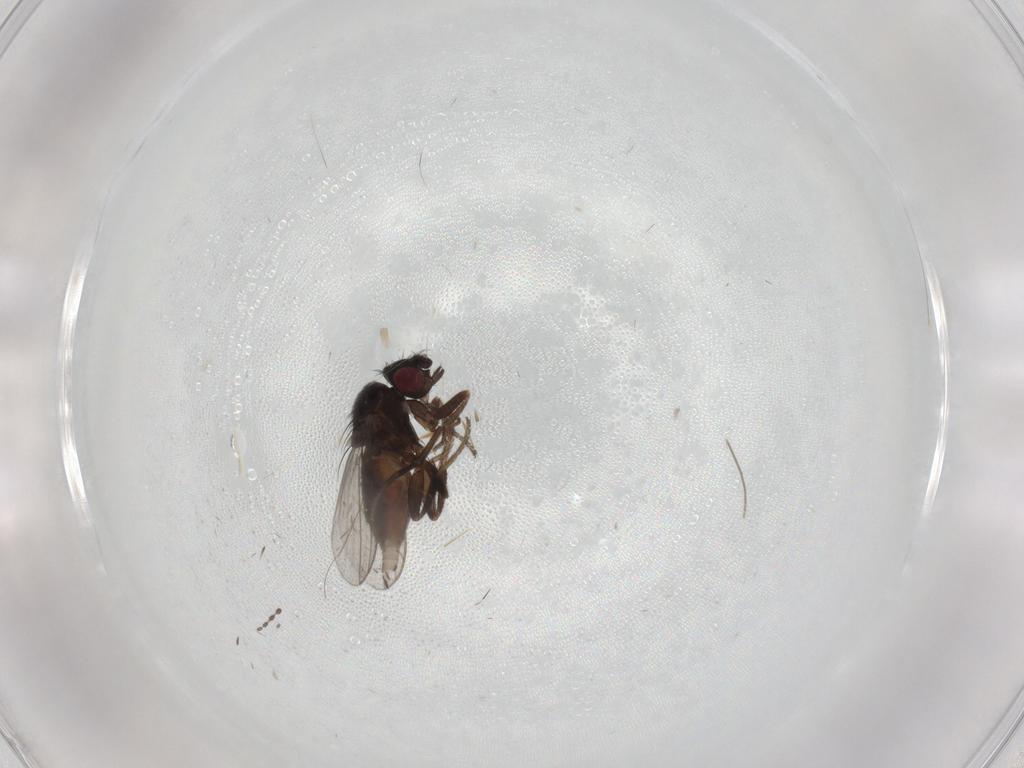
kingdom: Animalia
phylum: Arthropoda
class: Insecta
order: Diptera
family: Milichiidae
